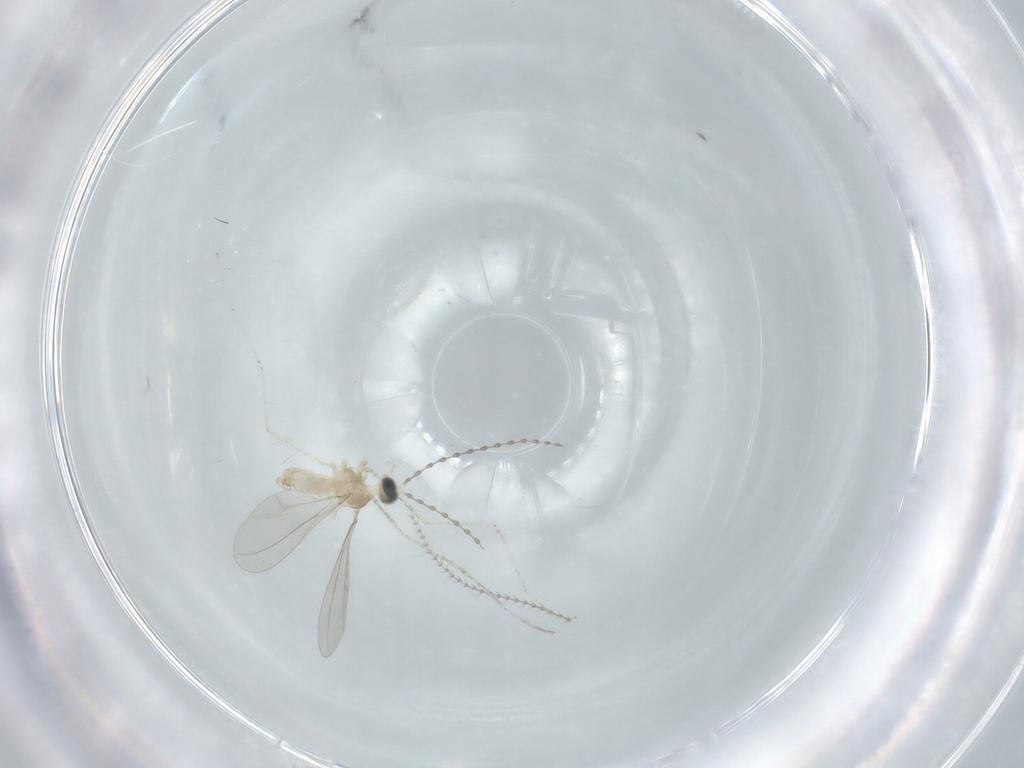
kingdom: Animalia
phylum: Arthropoda
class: Insecta
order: Diptera
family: Cecidomyiidae
